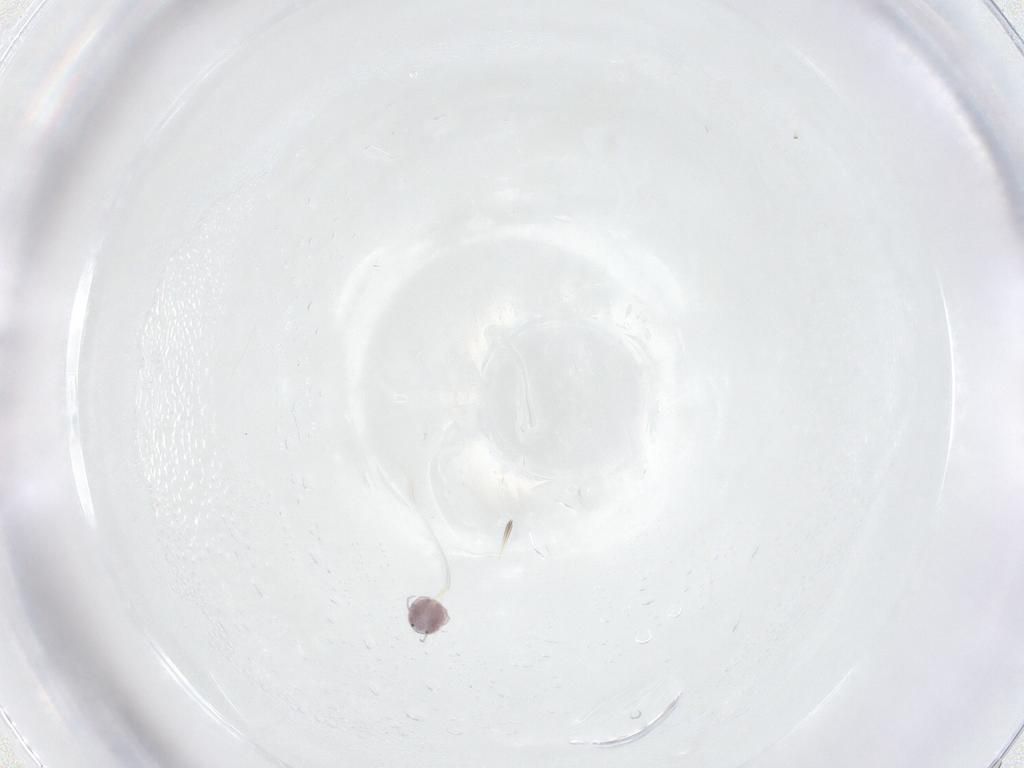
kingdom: Animalia
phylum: Arthropoda
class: Arachnida
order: Trombidiformes
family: Pionidae
